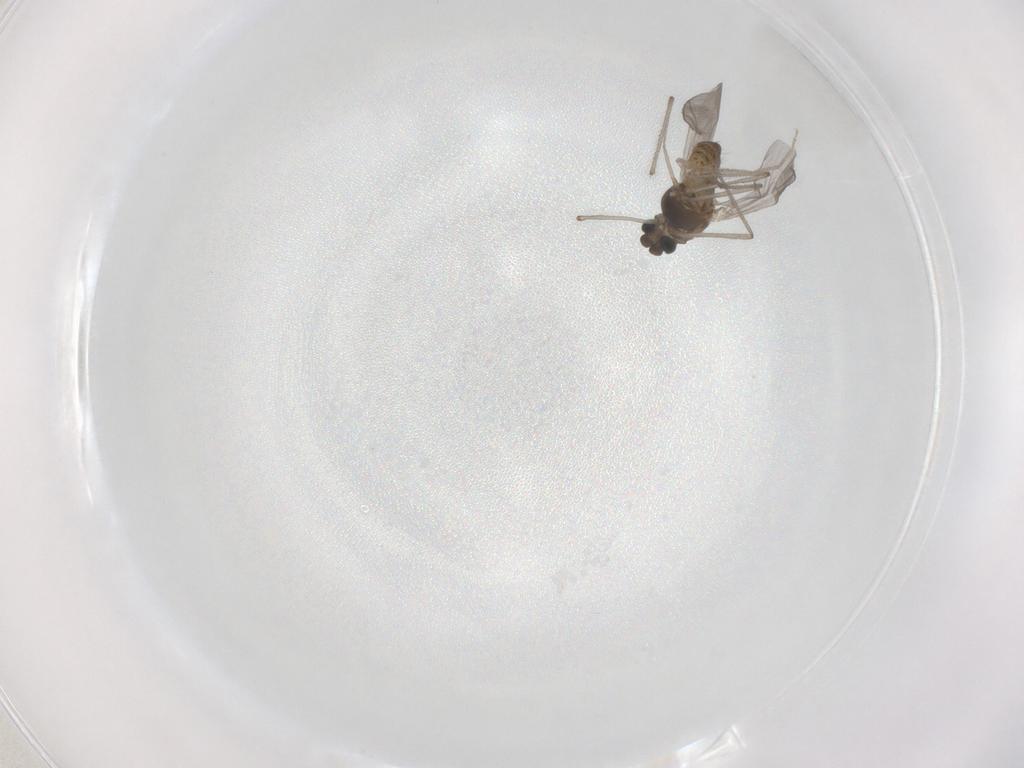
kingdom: Animalia
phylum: Arthropoda
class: Insecta
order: Diptera
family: Chironomidae
